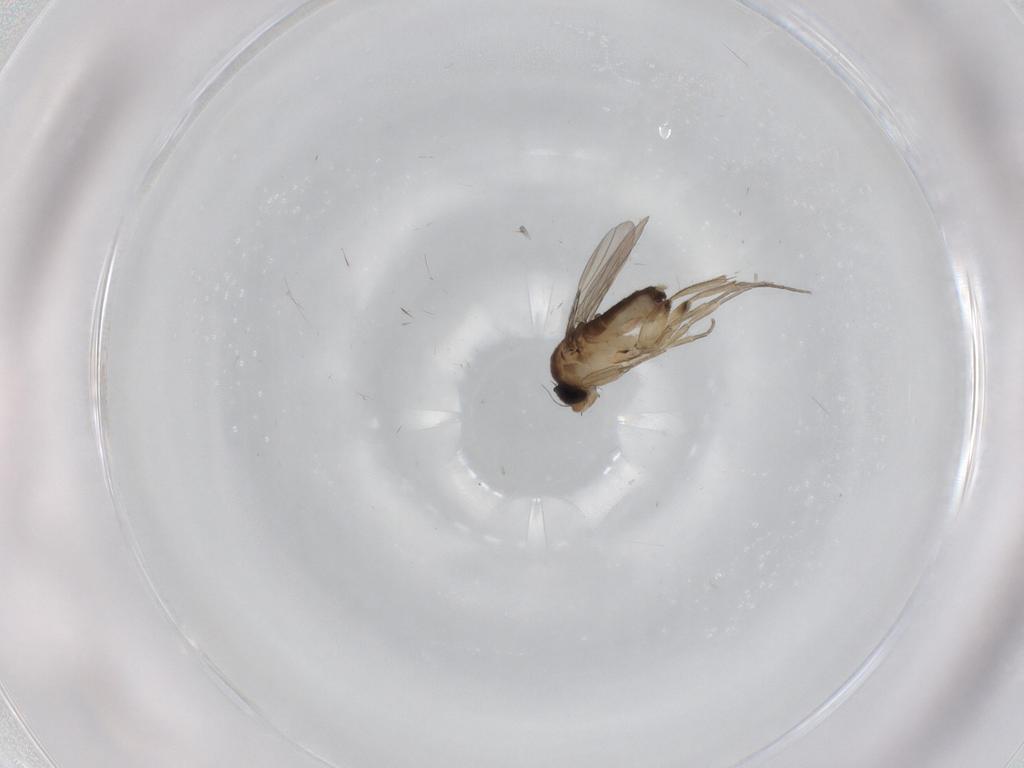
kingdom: Animalia
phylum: Arthropoda
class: Insecta
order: Diptera
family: Phoridae
